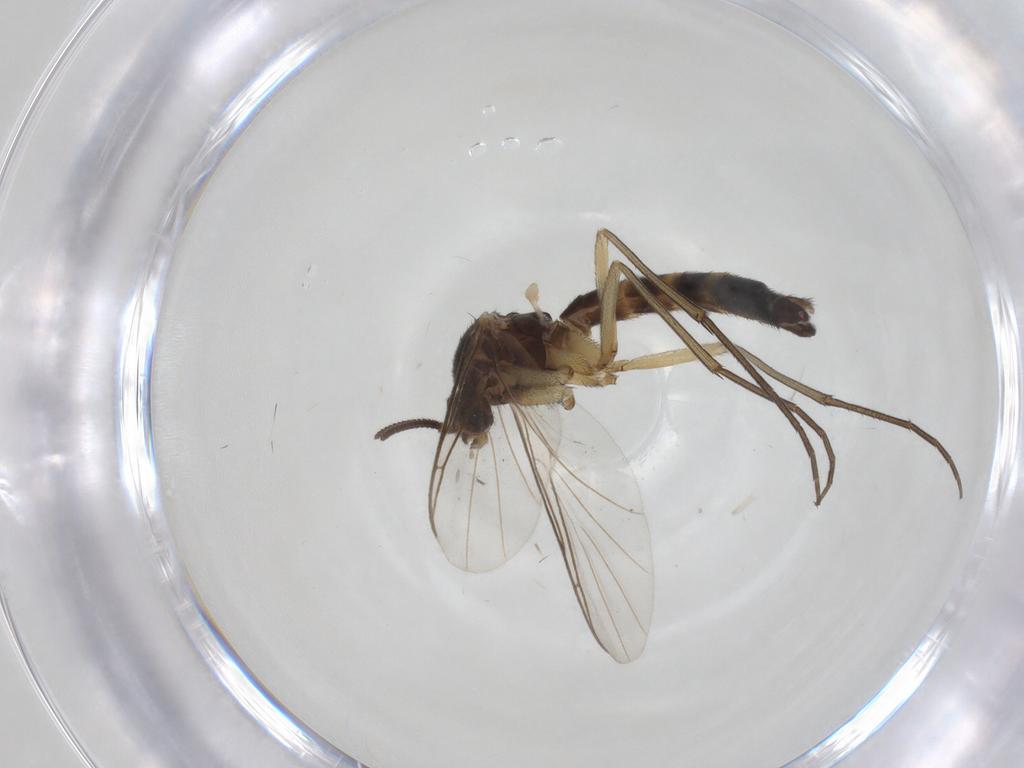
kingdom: Animalia
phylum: Arthropoda
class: Insecta
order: Diptera
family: Keroplatidae
